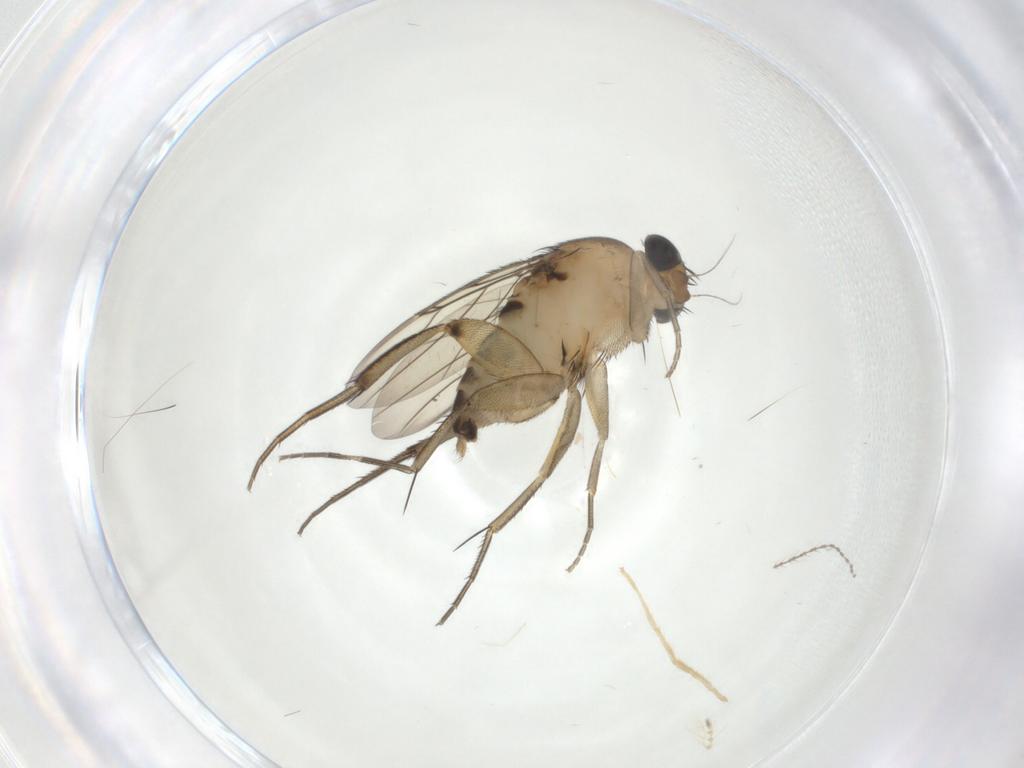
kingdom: Animalia
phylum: Arthropoda
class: Insecta
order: Diptera
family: Phoridae
